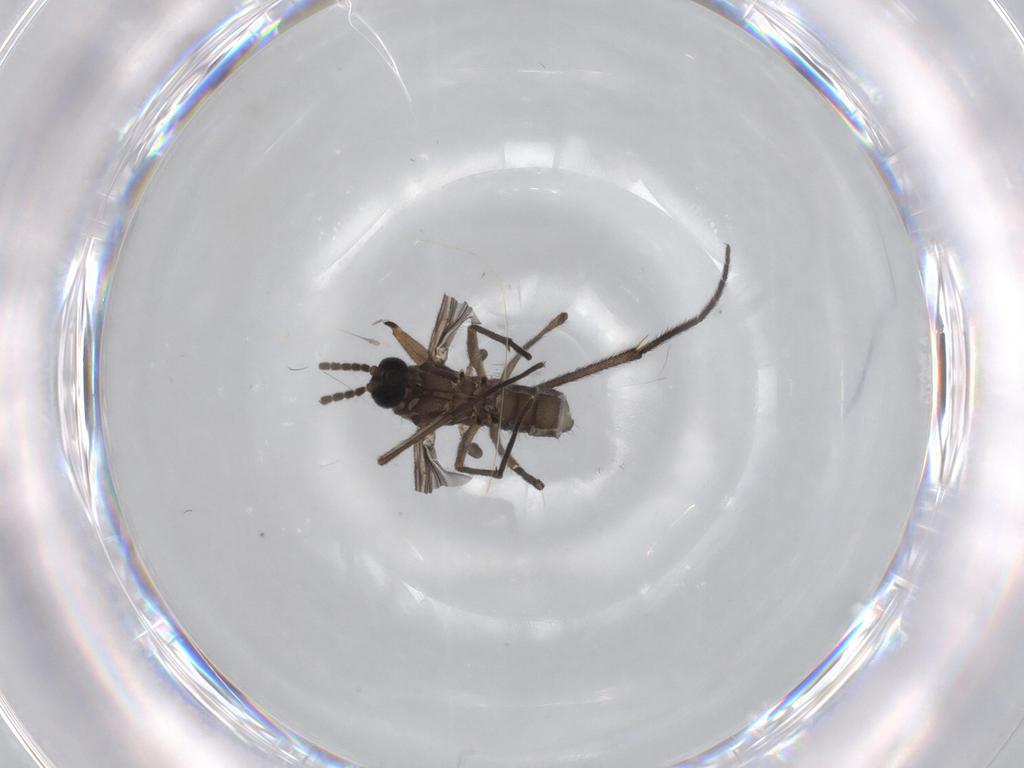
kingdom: Animalia
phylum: Arthropoda
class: Insecta
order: Diptera
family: Sciaridae
